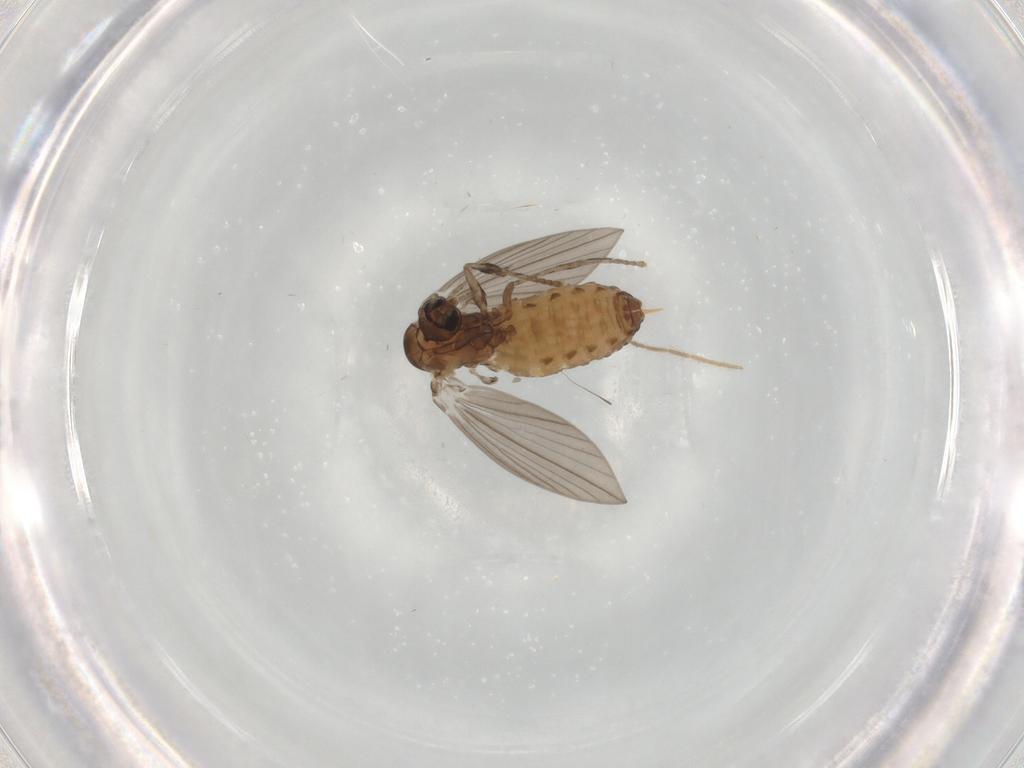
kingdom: Animalia
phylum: Arthropoda
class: Insecta
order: Diptera
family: Psychodidae
